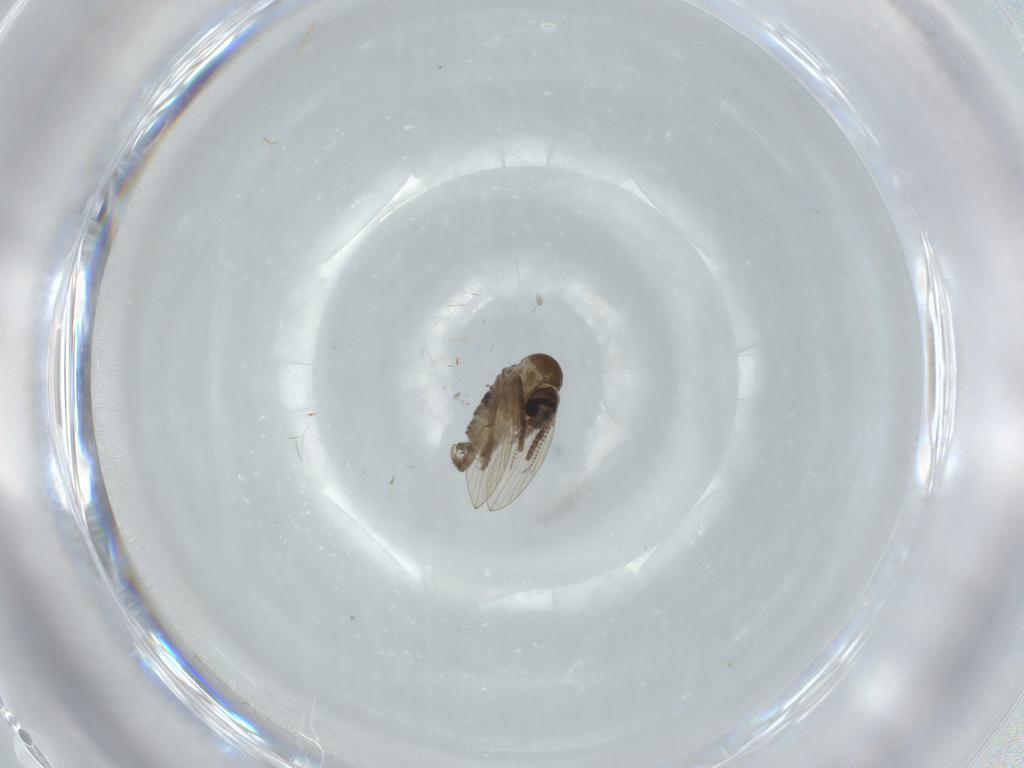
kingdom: Animalia
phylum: Arthropoda
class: Insecta
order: Diptera
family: Psychodidae
